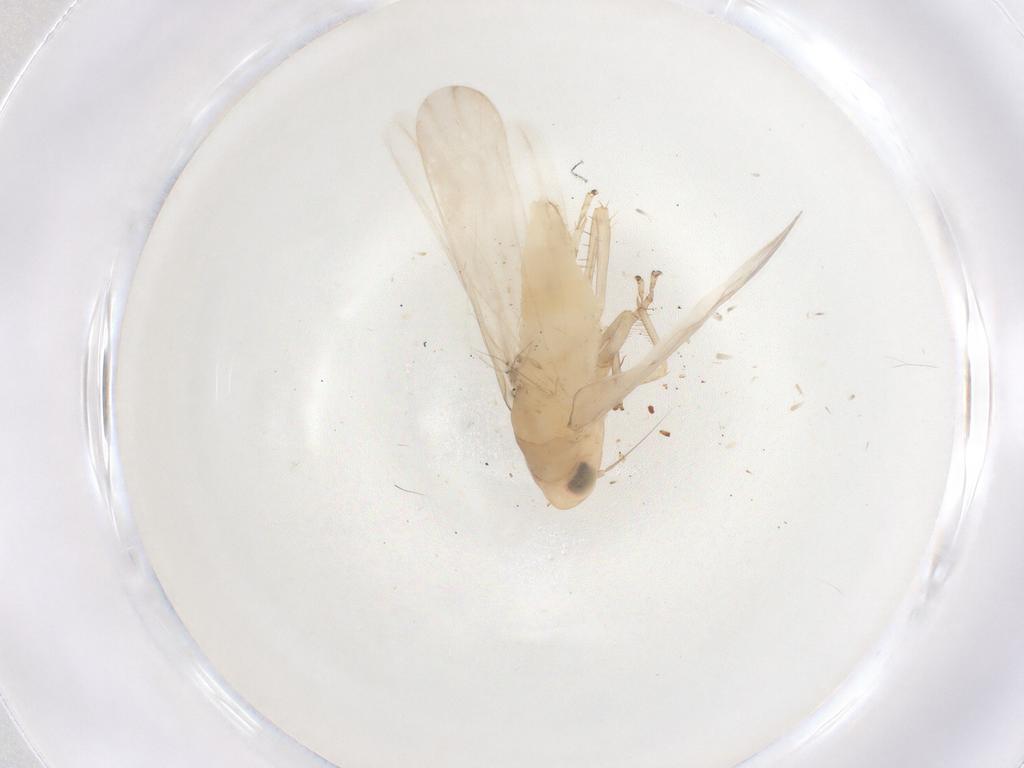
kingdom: Animalia
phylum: Arthropoda
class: Insecta
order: Hemiptera
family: Cicadellidae
